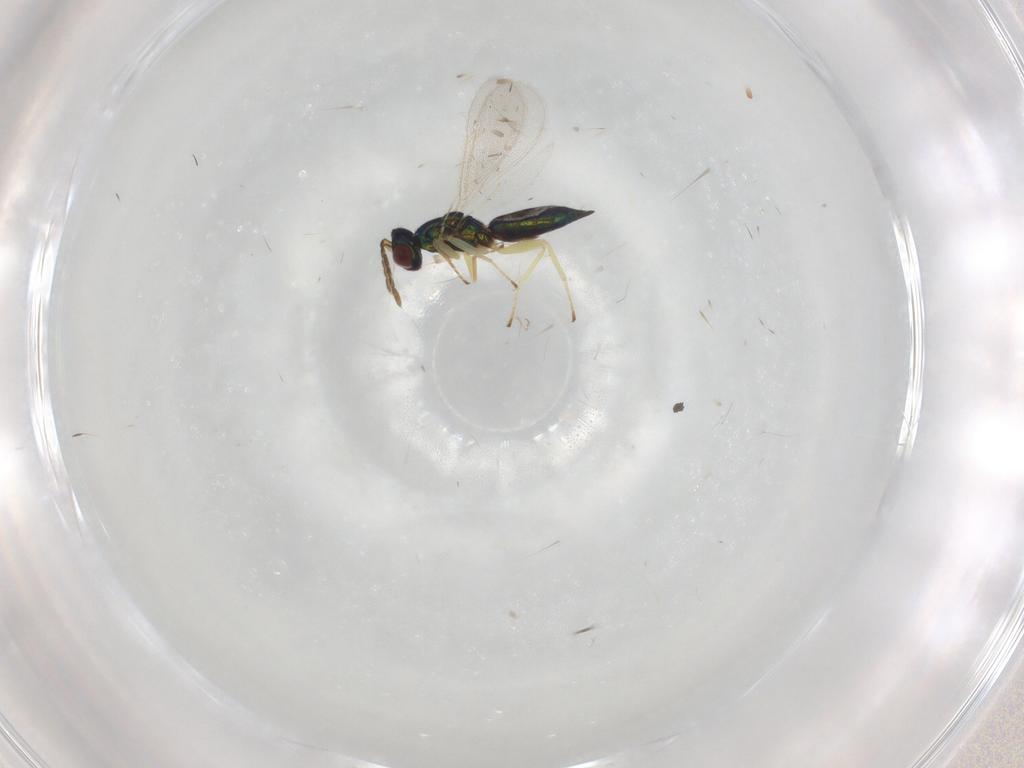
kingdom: Animalia
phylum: Arthropoda
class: Insecta
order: Hymenoptera
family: Eulophidae
